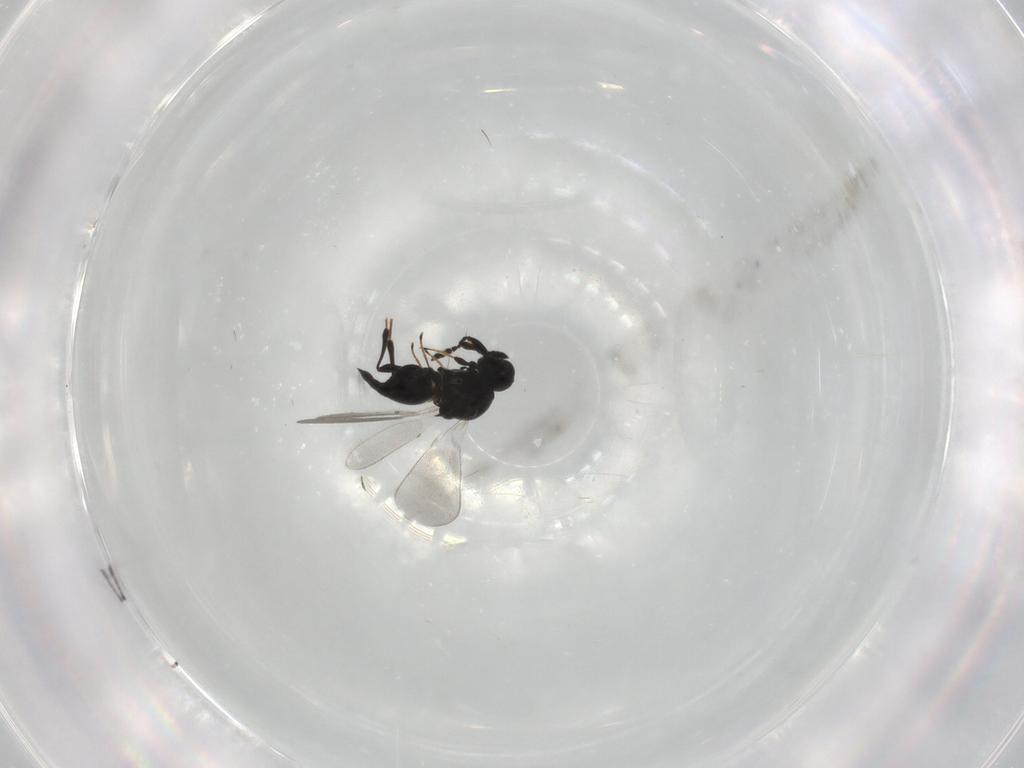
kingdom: Animalia
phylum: Arthropoda
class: Insecta
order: Hymenoptera
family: Platygastridae
